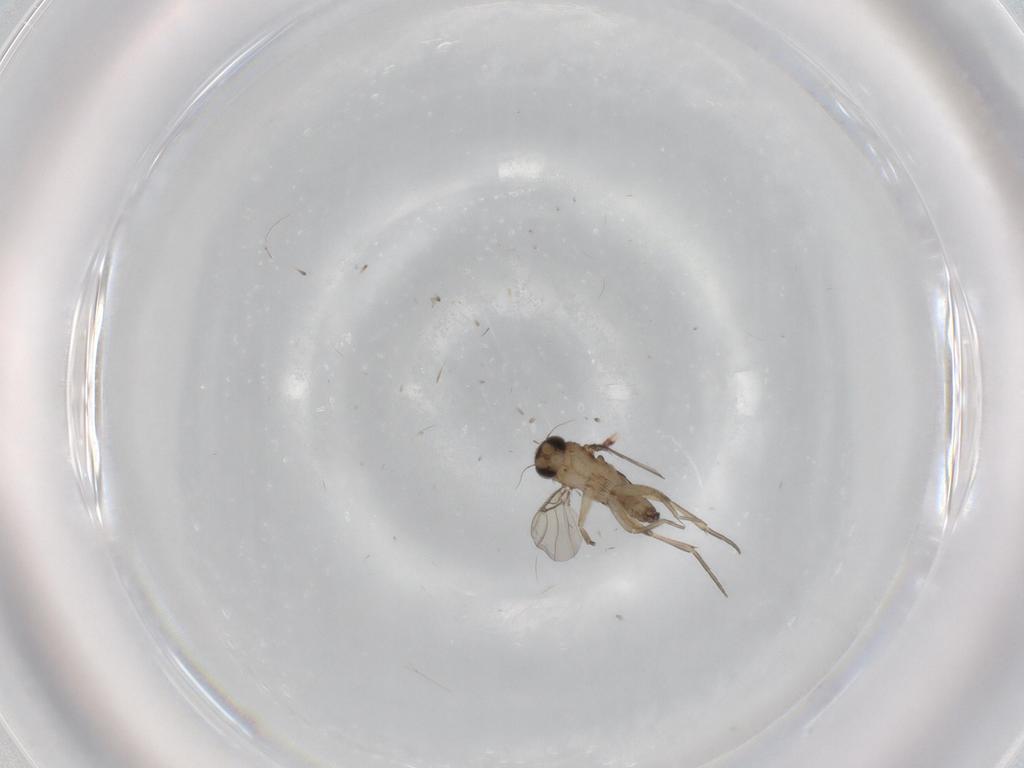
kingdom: Animalia
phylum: Arthropoda
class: Insecta
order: Diptera
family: Phoridae
